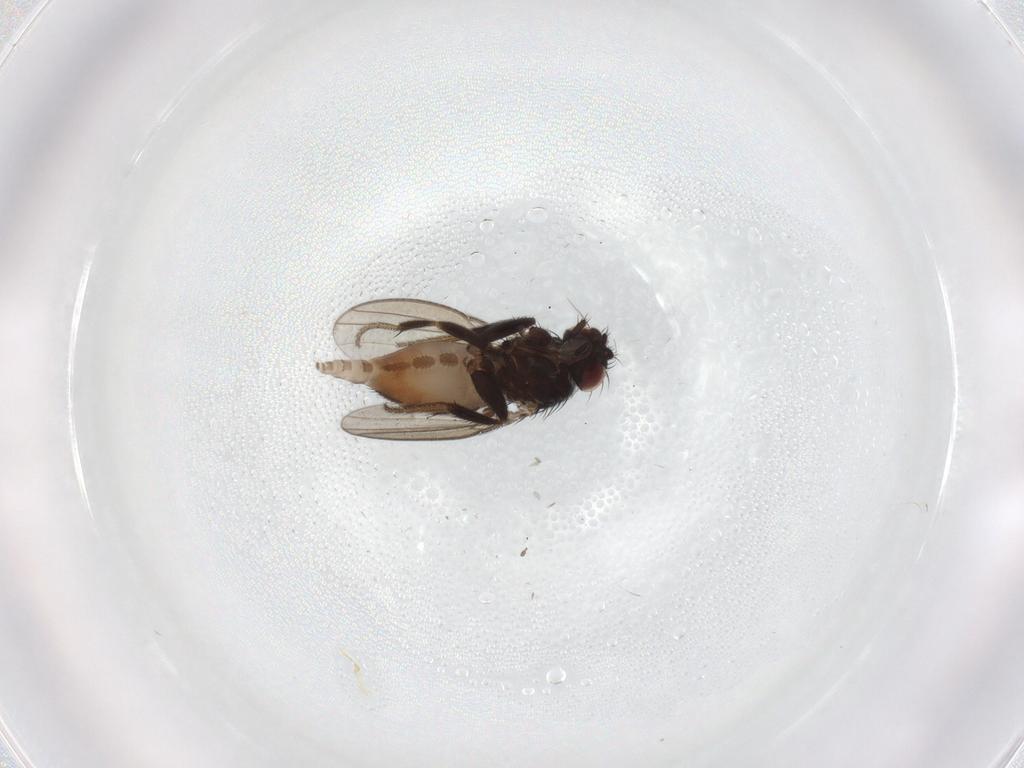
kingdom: Animalia
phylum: Arthropoda
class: Insecta
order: Diptera
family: Milichiidae
